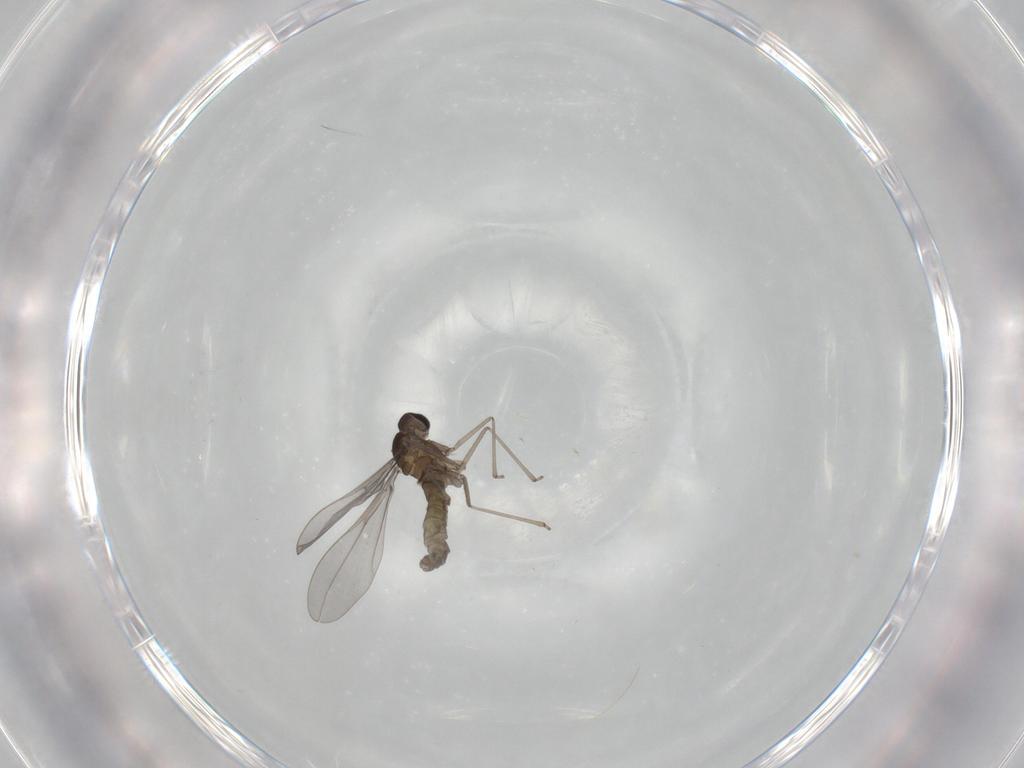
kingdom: Animalia
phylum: Arthropoda
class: Insecta
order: Diptera
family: Cecidomyiidae
